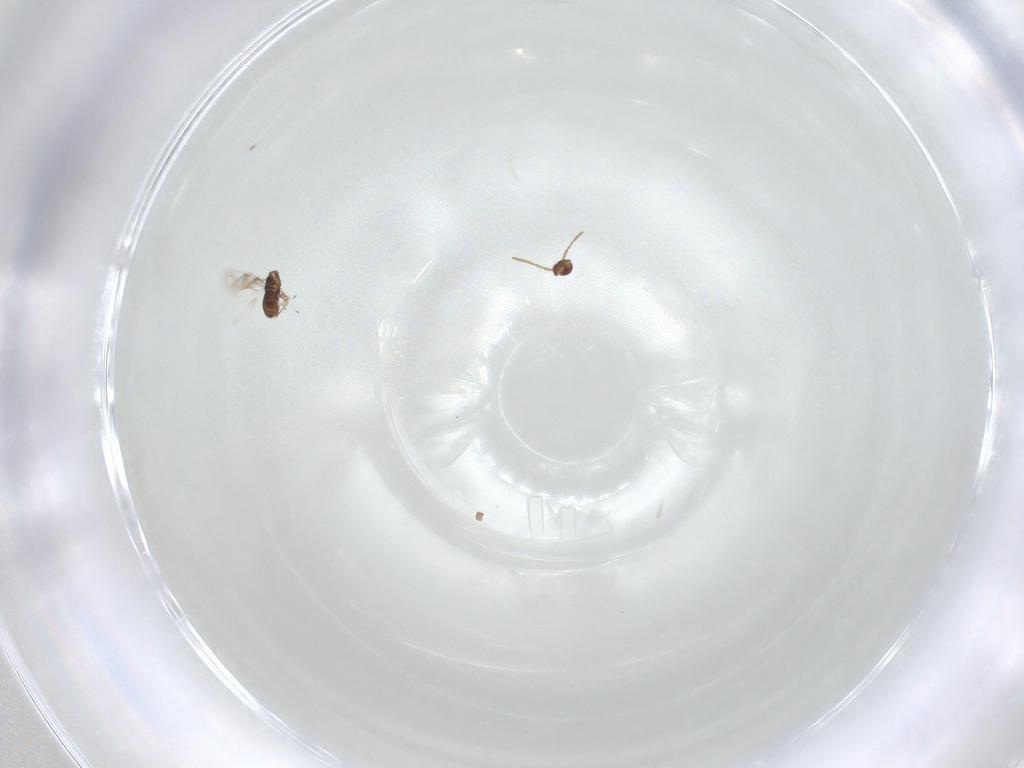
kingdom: Animalia
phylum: Arthropoda
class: Insecta
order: Hymenoptera
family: Azotidae
